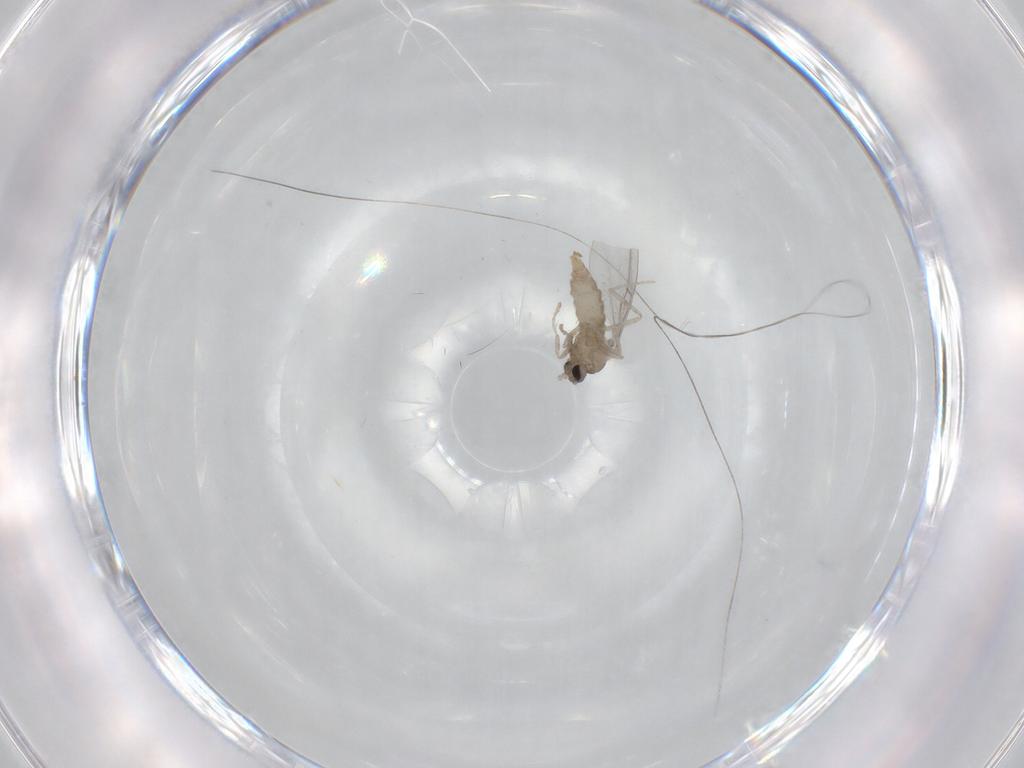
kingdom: Animalia
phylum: Arthropoda
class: Insecta
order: Diptera
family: Cecidomyiidae
